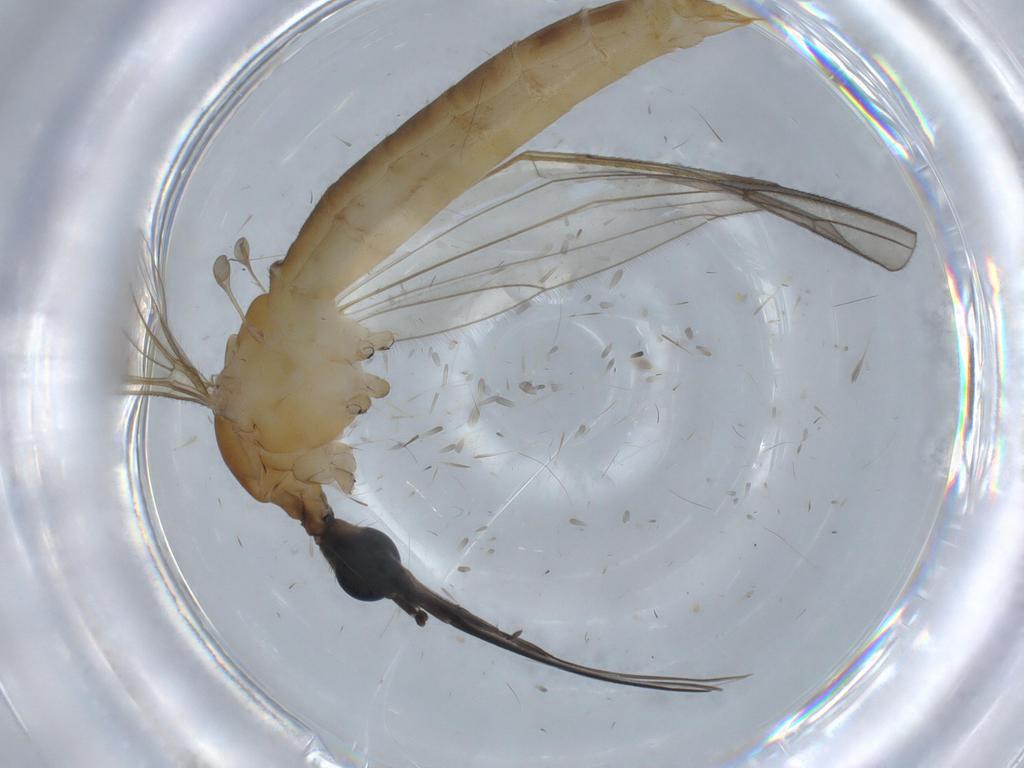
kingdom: Animalia
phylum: Arthropoda
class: Insecta
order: Diptera
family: Limoniidae
